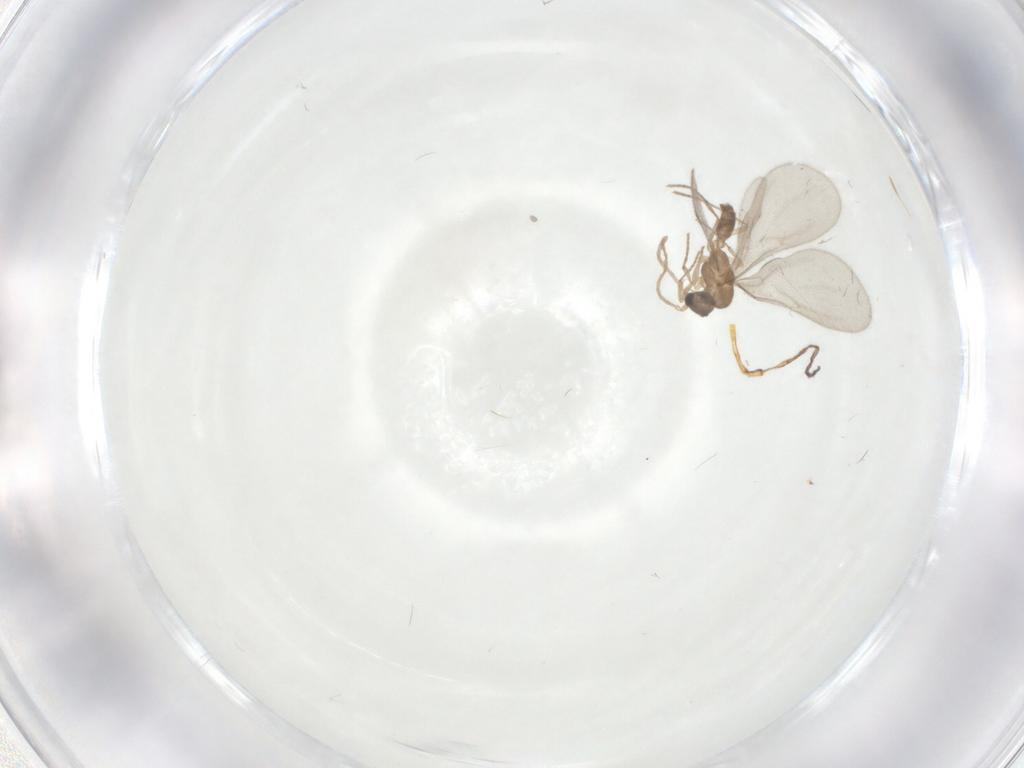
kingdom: Animalia
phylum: Arthropoda
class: Insecta
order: Hymenoptera
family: Formicidae
